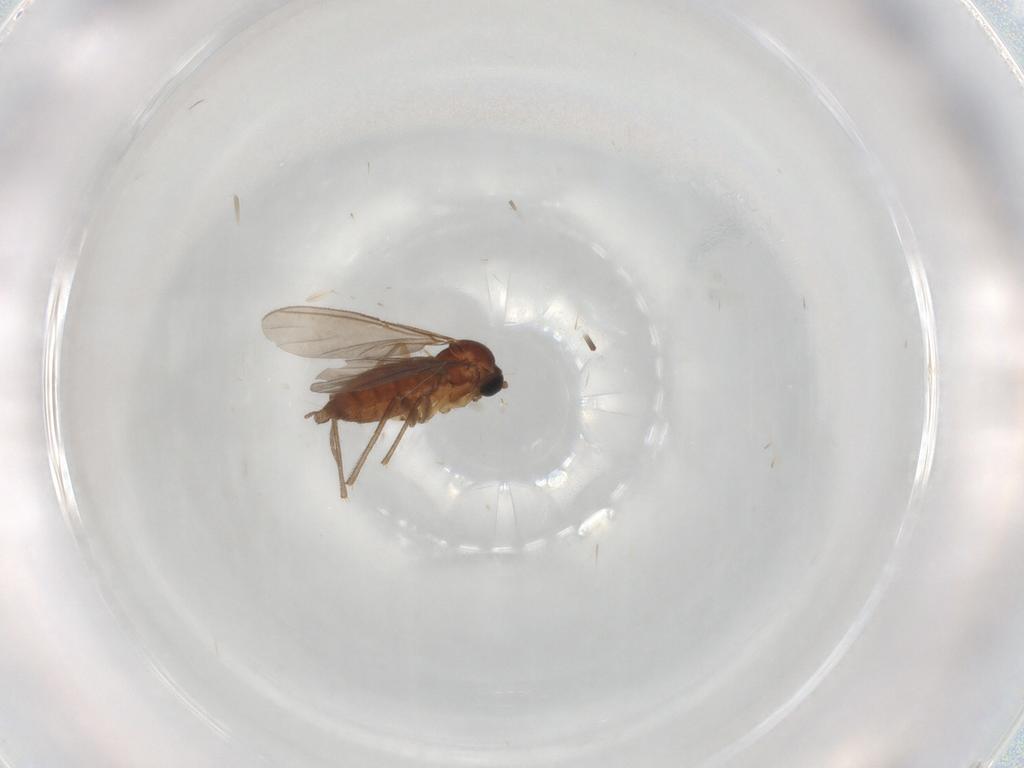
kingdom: Animalia
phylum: Arthropoda
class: Insecta
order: Diptera
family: Sciaridae
